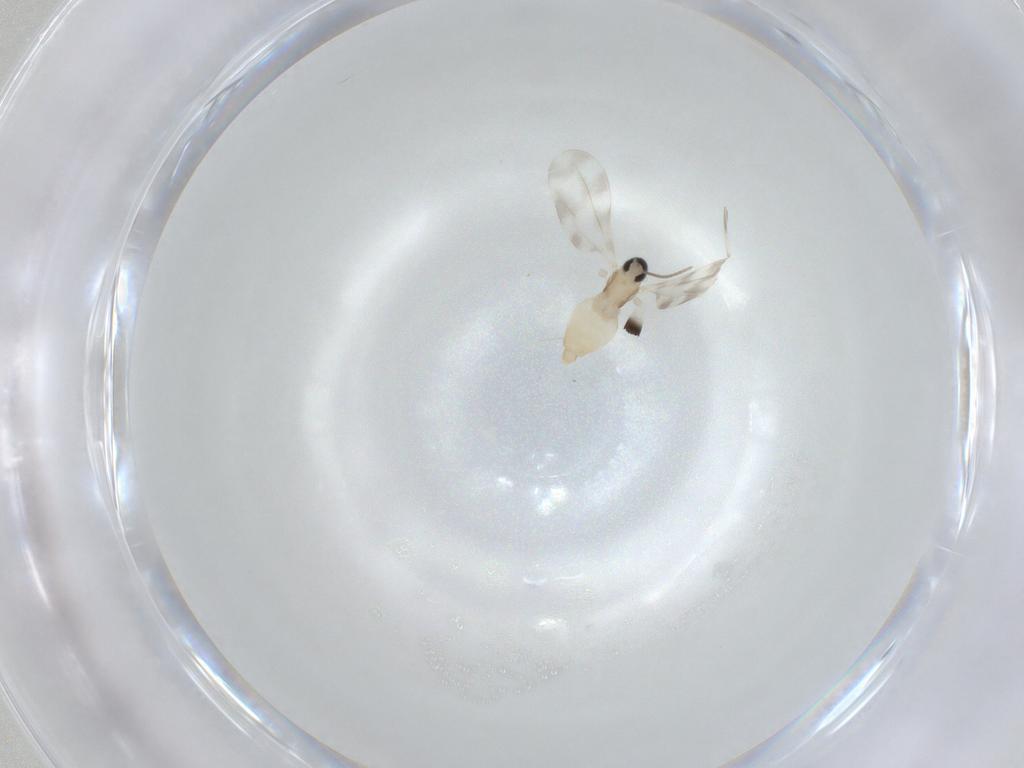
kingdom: Animalia
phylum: Arthropoda
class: Insecta
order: Diptera
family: Cecidomyiidae
